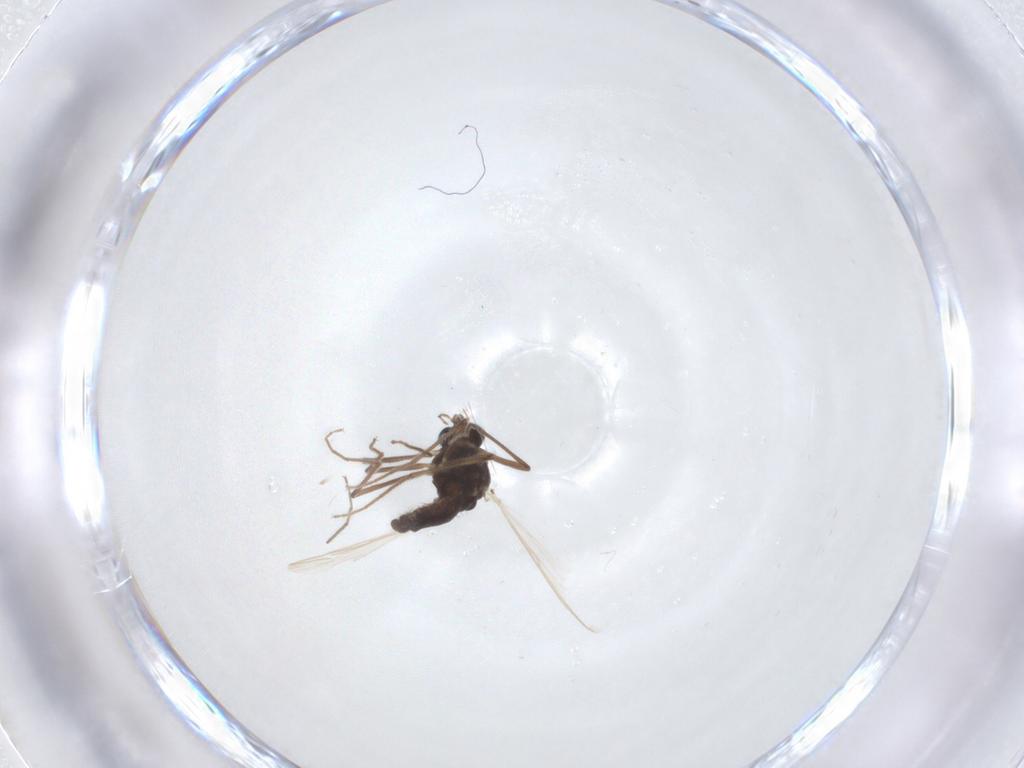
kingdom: Animalia
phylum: Arthropoda
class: Insecta
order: Diptera
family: Chironomidae
